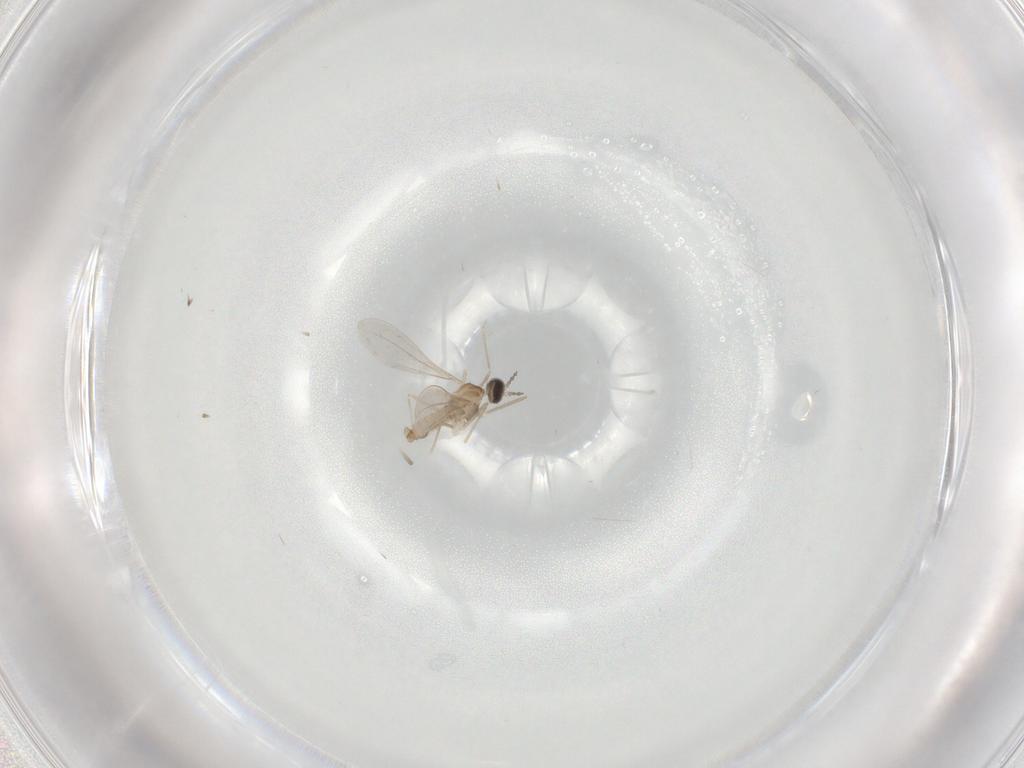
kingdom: Animalia
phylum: Arthropoda
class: Insecta
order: Diptera
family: Cecidomyiidae
